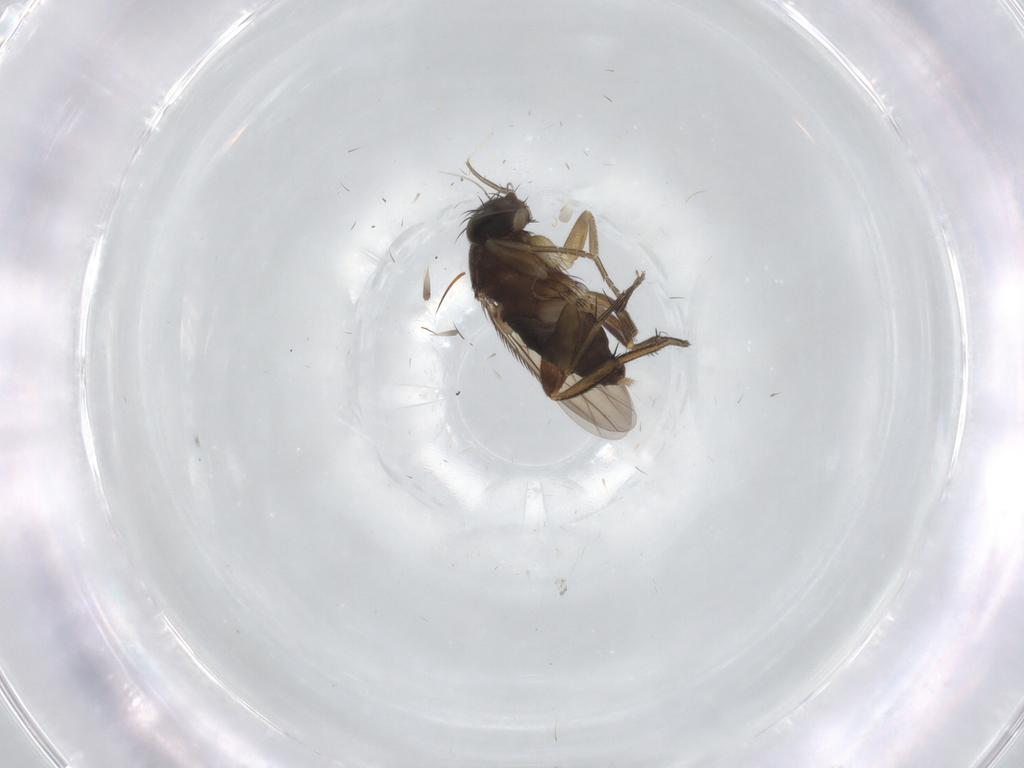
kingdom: Animalia
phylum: Arthropoda
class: Insecta
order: Diptera
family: Phoridae
